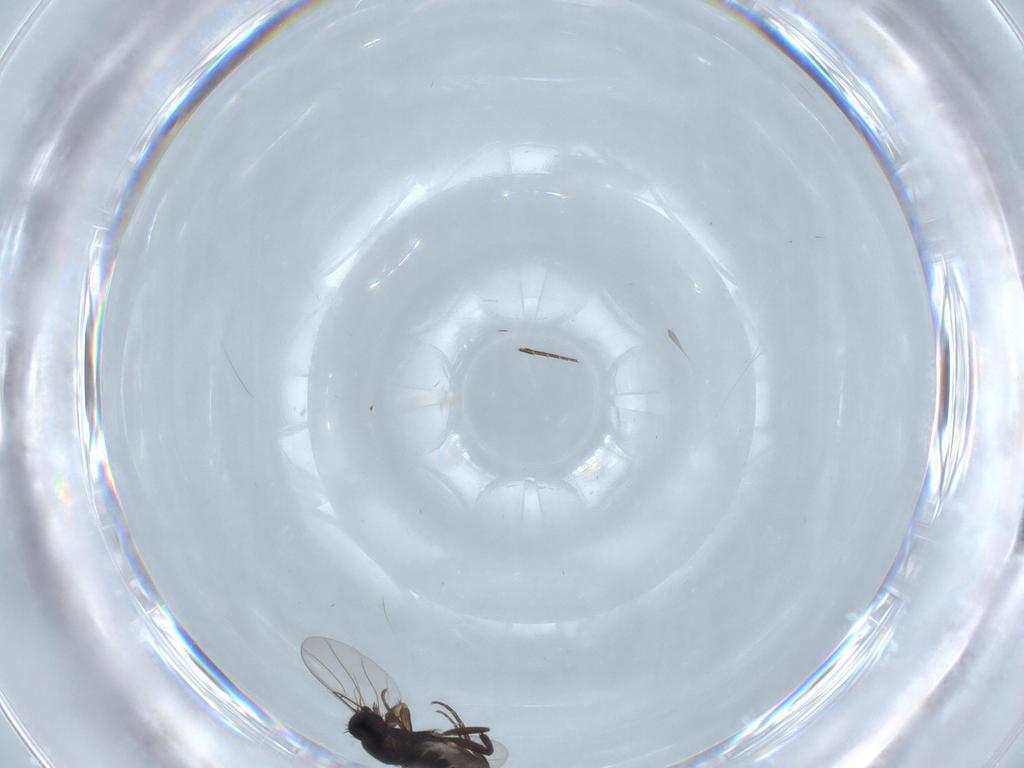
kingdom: Animalia
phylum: Arthropoda
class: Insecta
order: Diptera
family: Phoridae
